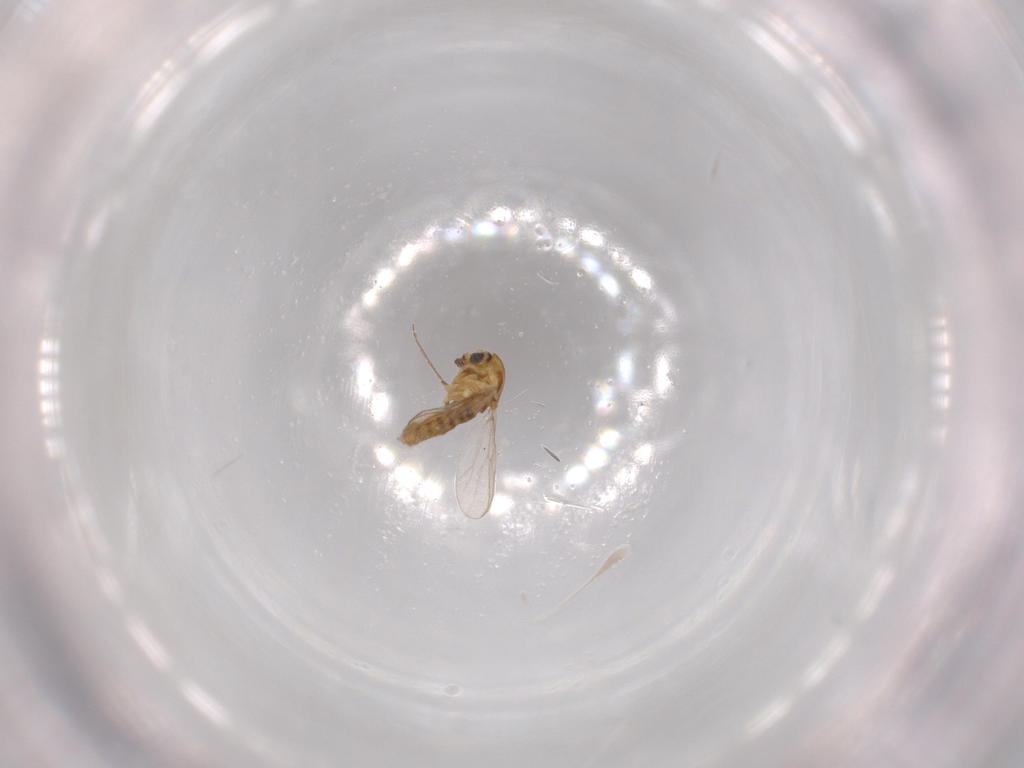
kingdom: Animalia
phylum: Arthropoda
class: Insecta
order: Diptera
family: Chironomidae
